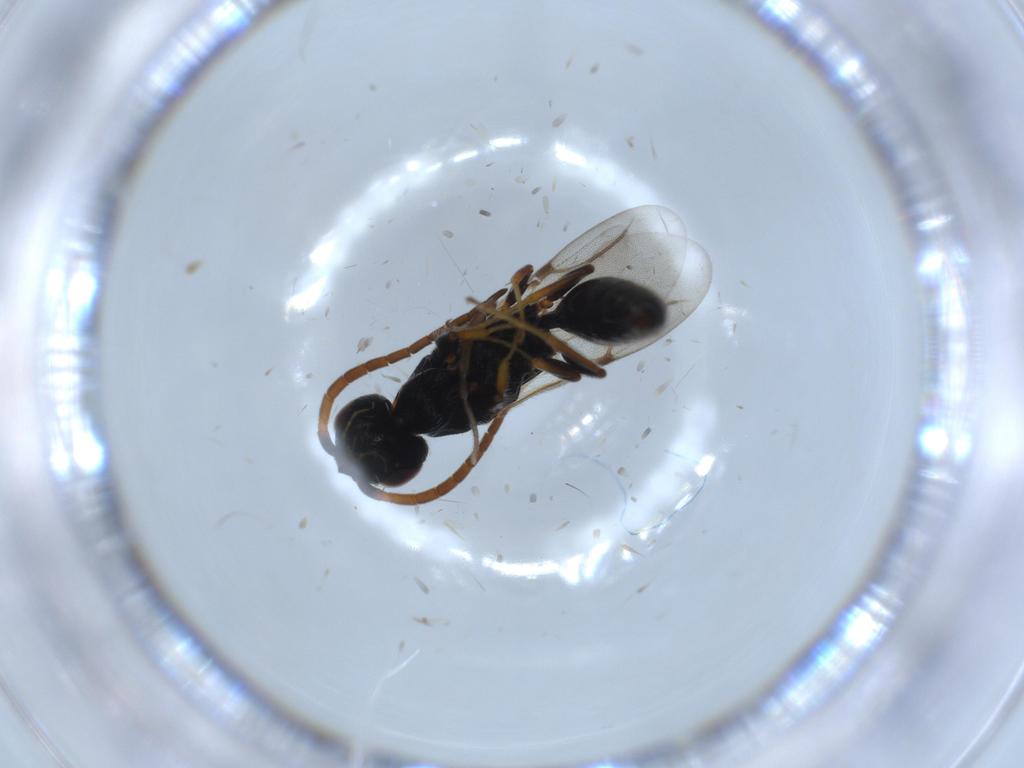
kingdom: Animalia
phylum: Arthropoda
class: Insecta
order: Hymenoptera
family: Bethylidae
